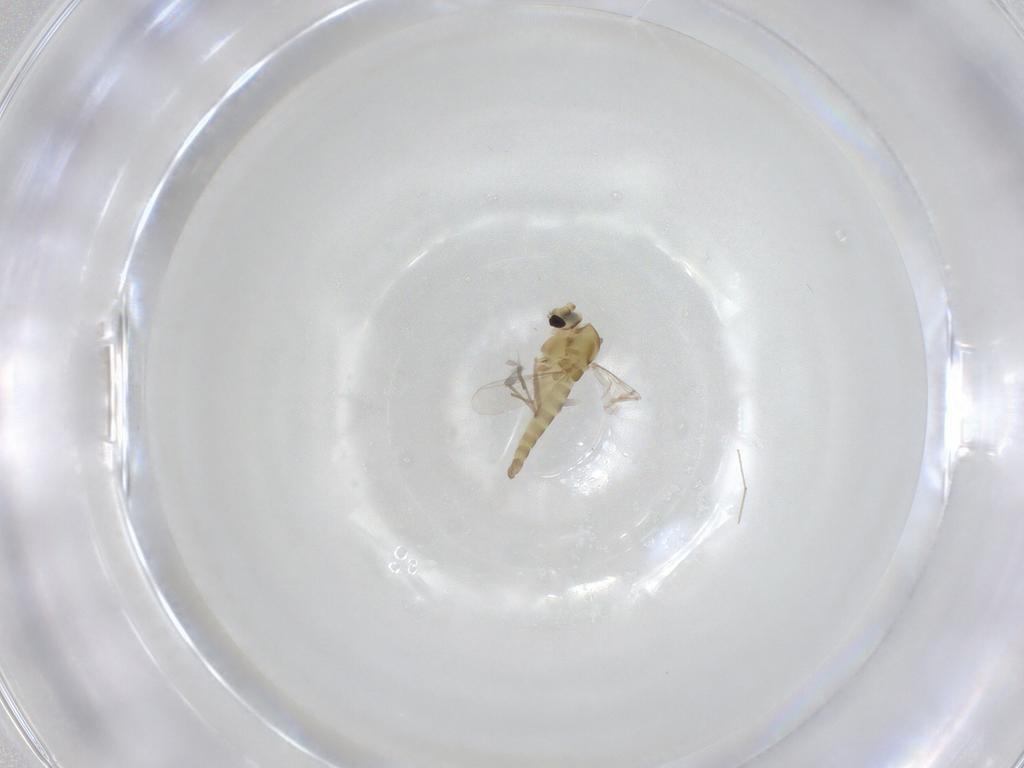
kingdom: Animalia
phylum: Arthropoda
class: Insecta
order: Diptera
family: Chironomidae
